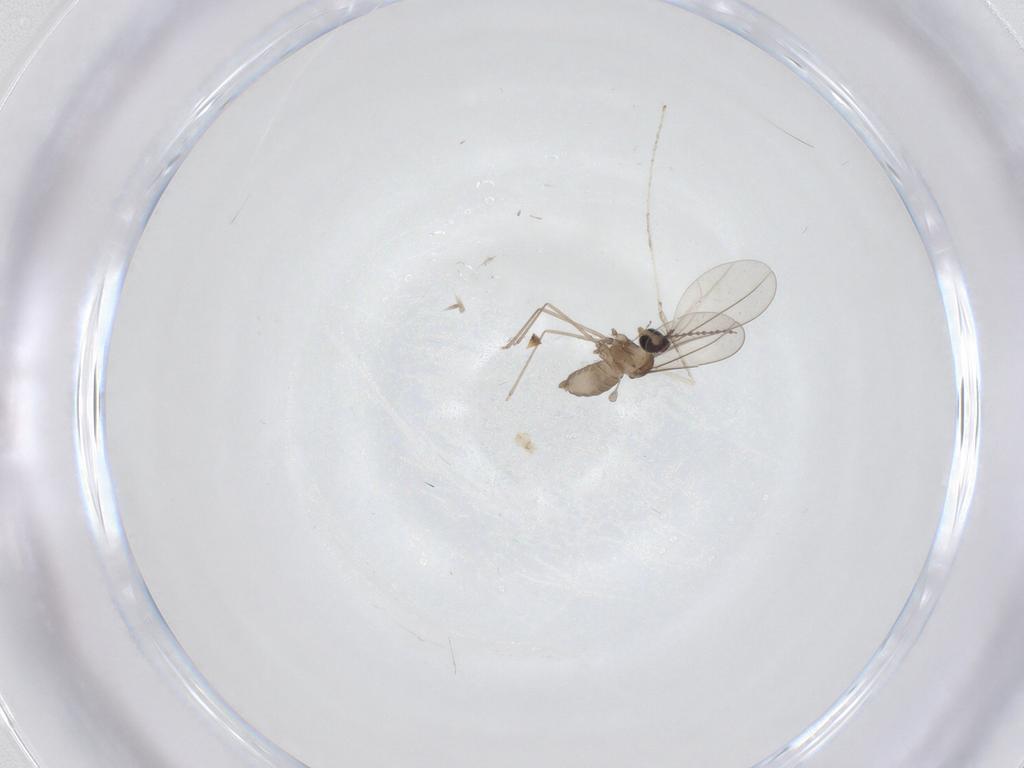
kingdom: Animalia
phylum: Arthropoda
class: Insecta
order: Diptera
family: Cecidomyiidae
